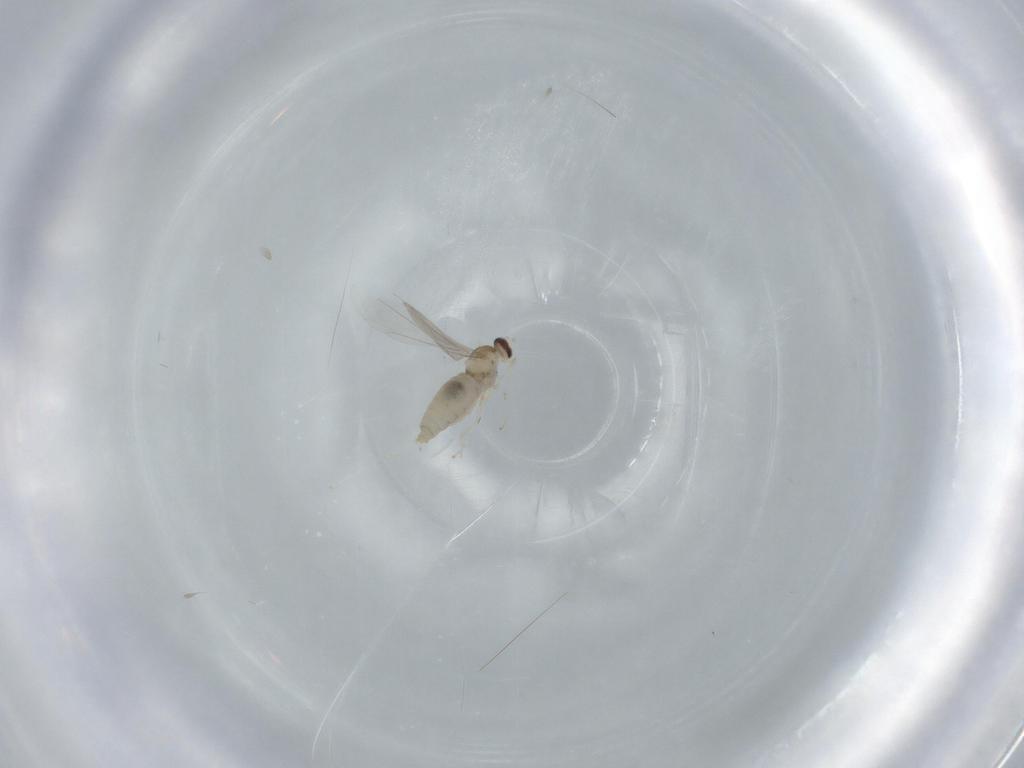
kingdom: Animalia
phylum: Arthropoda
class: Insecta
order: Diptera
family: Cecidomyiidae
